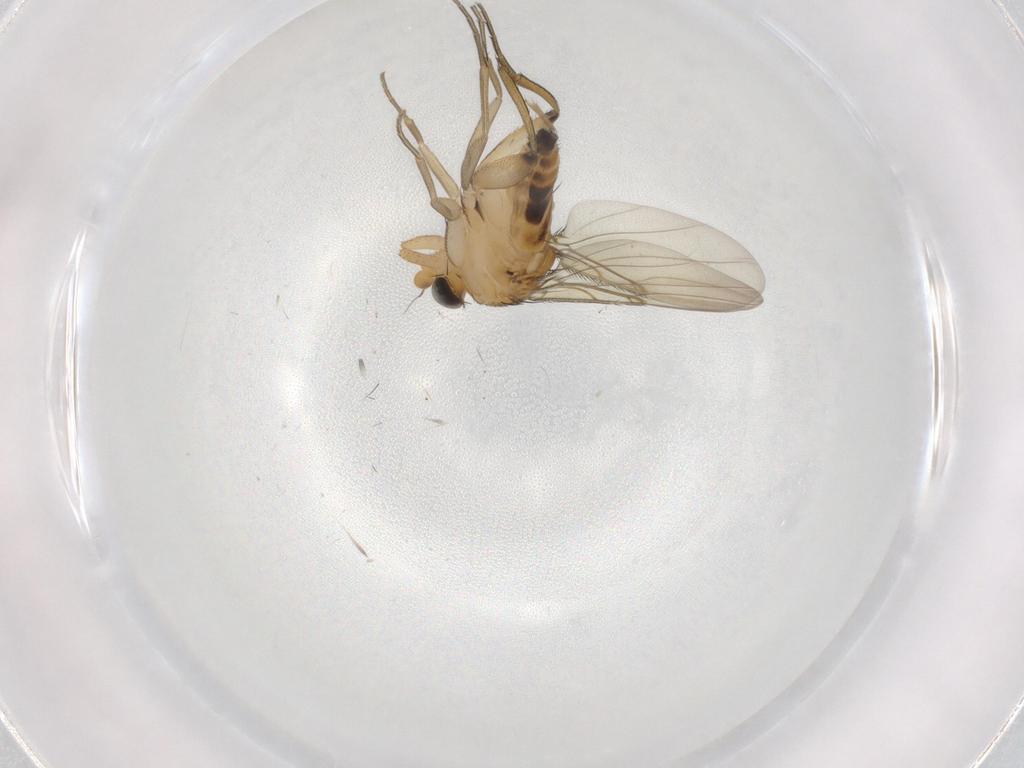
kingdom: Animalia
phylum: Arthropoda
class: Insecta
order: Diptera
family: Phoridae
